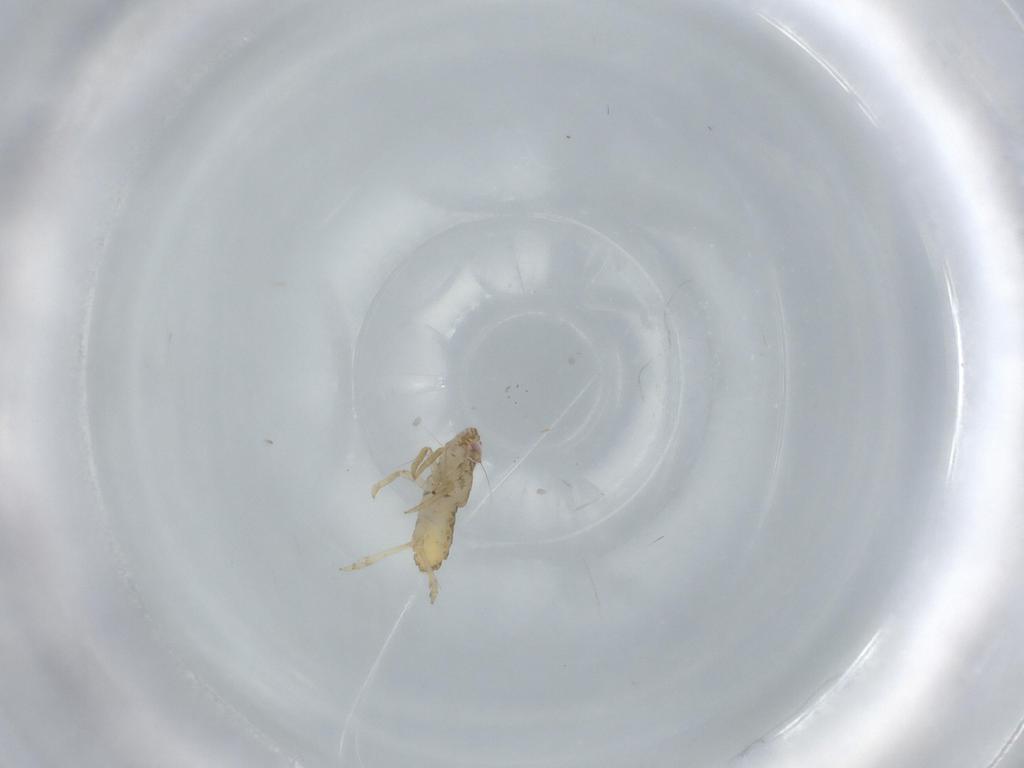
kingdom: Animalia
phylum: Arthropoda
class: Insecta
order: Hemiptera
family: Delphacidae
